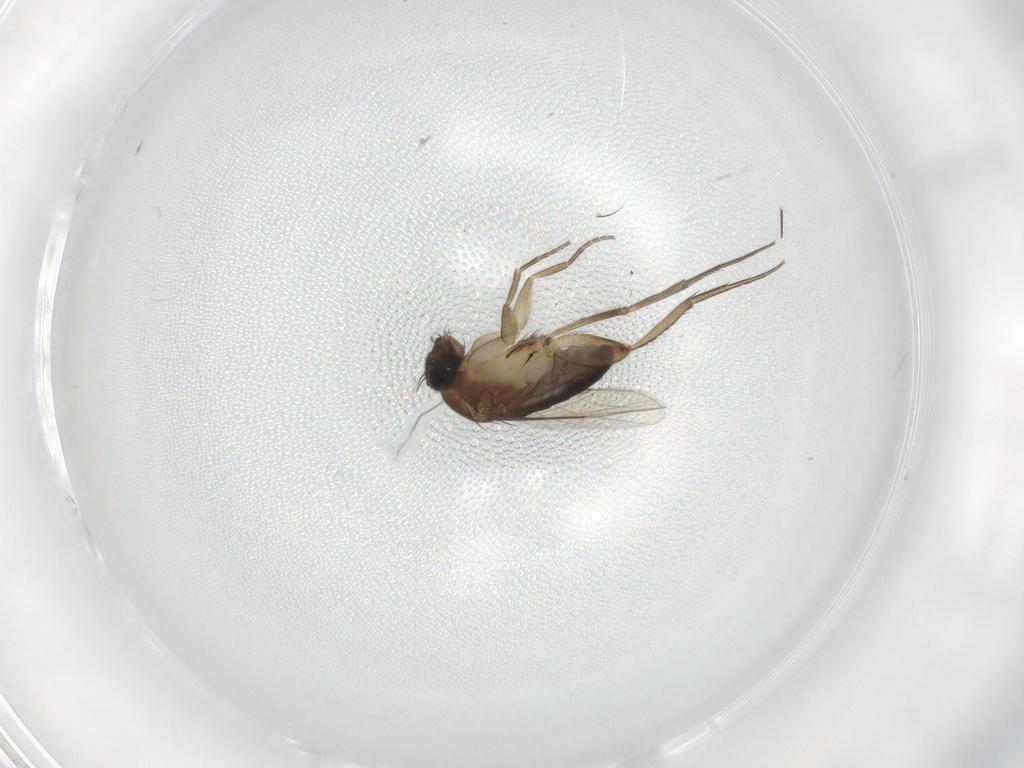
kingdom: Animalia
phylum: Arthropoda
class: Insecta
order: Diptera
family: Phoridae
